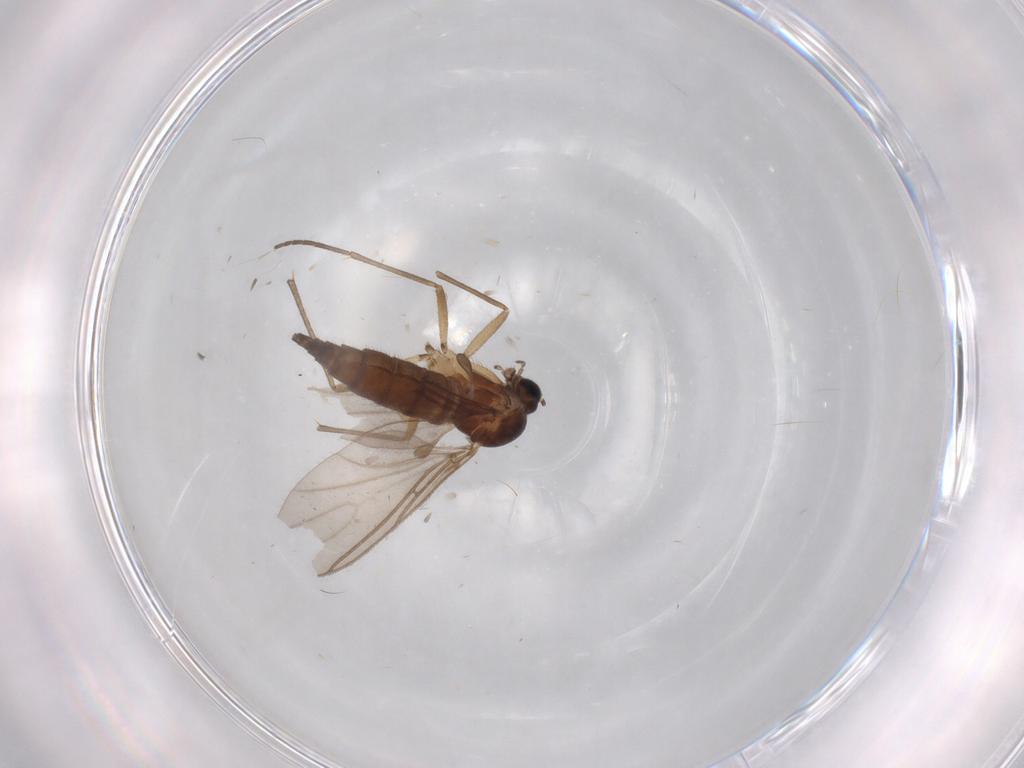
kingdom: Animalia
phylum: Arthropoda
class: Insecta
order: Diptera
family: Sciaridae
